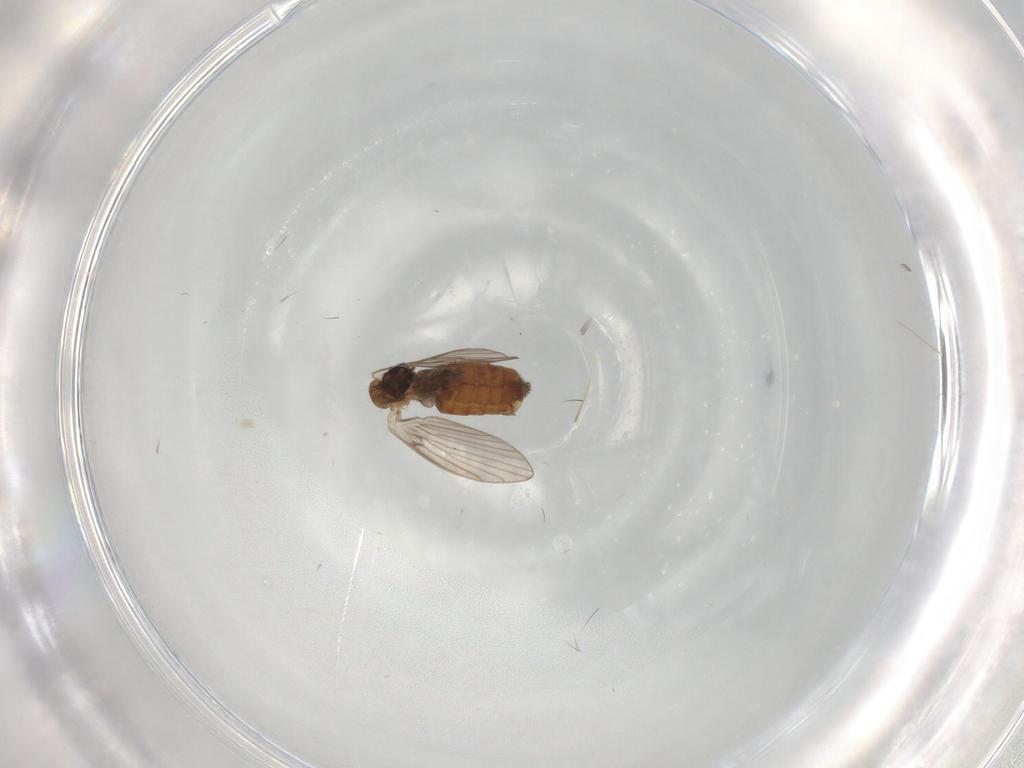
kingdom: Animalia
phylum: Arthropoda
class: Insecta
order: Diptera
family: Psychodidae
